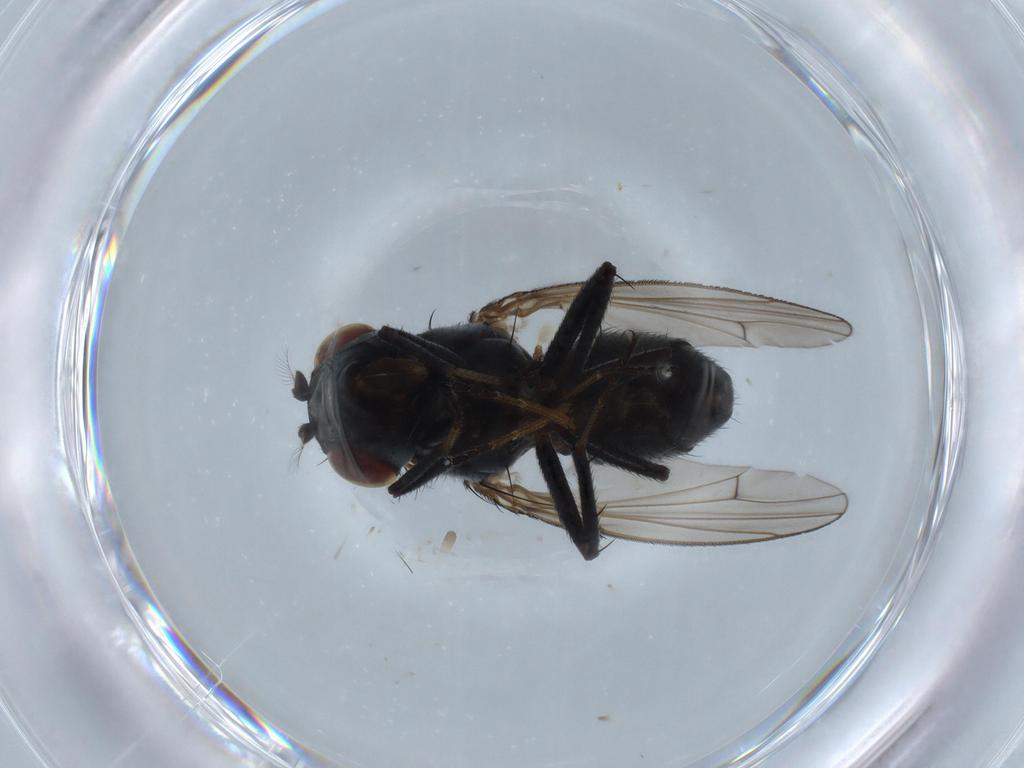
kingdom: Animalia
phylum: Arthropoda
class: Insecta
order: Diptera
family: Ephydridae
